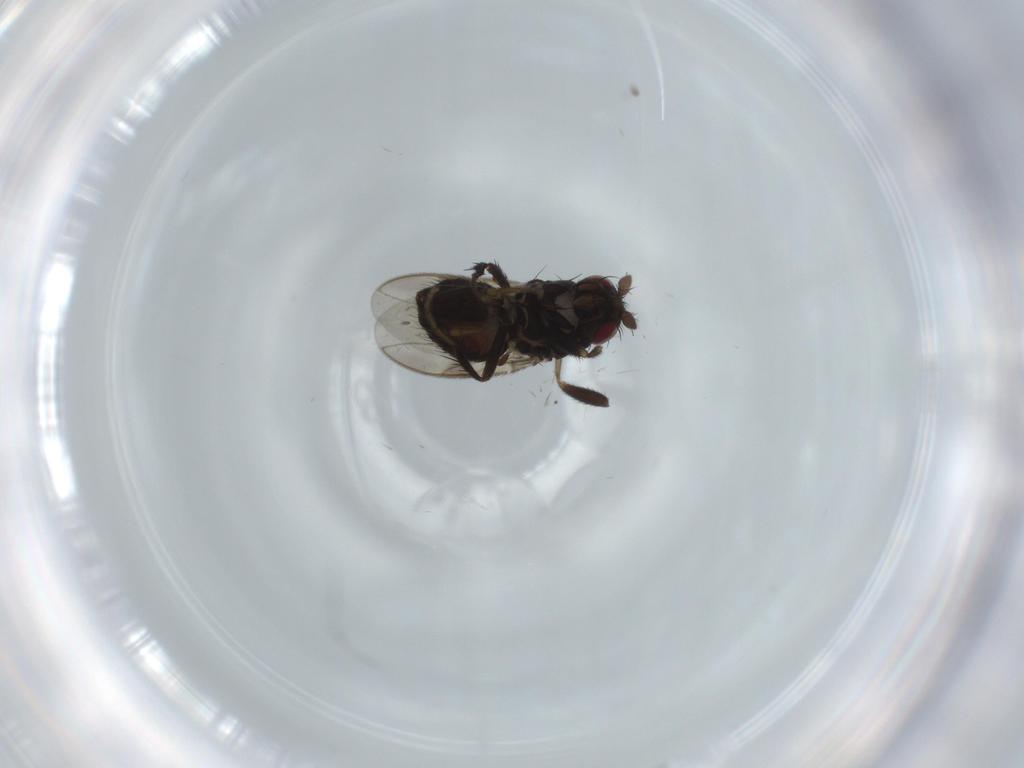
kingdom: Animalia
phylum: Arthropoda
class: Insecta
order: Diptera
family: Sphaeroceridae
